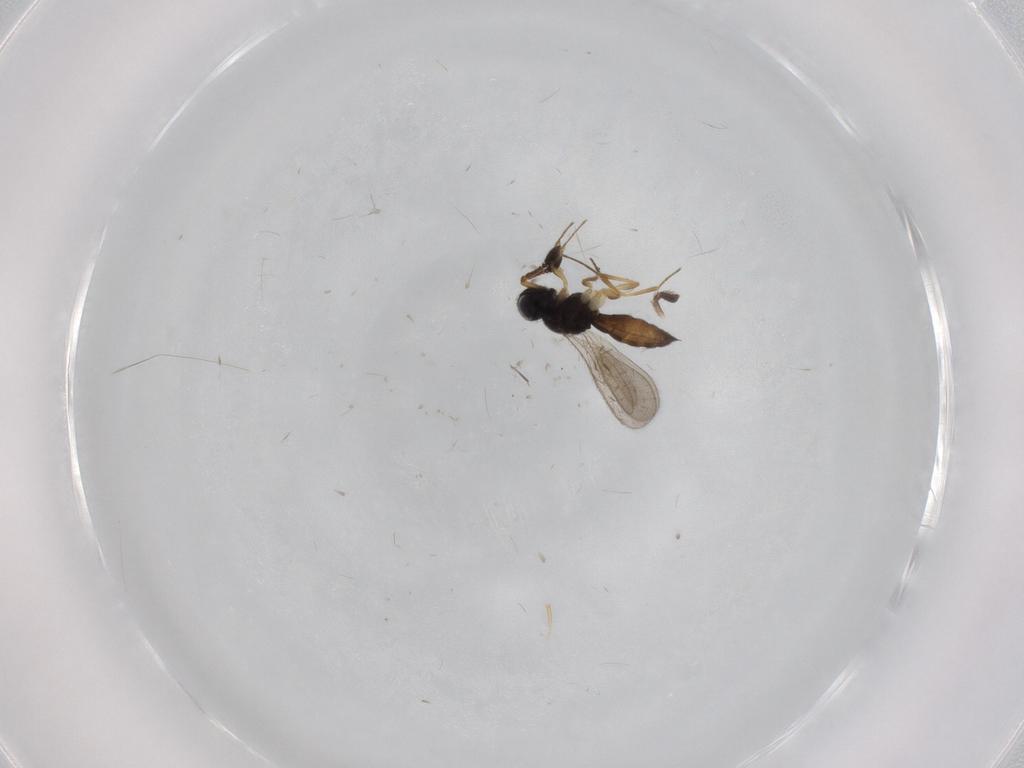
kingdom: Animalia
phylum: Arthropoda
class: Insecta
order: Hymenoptera
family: Scelionidae
